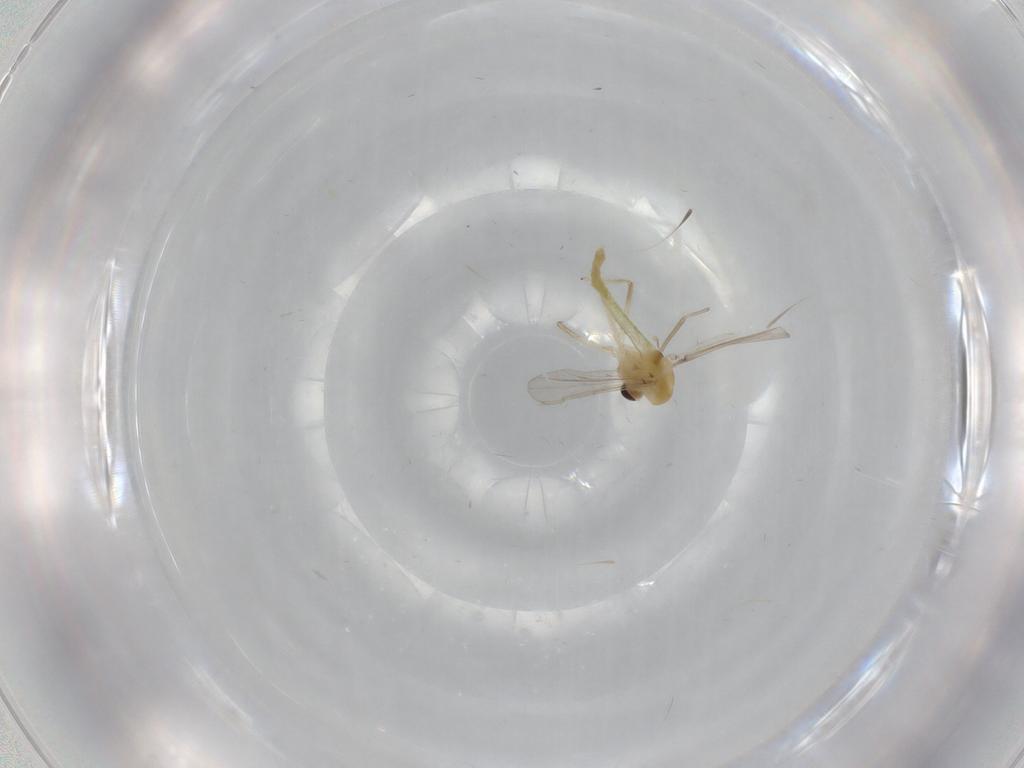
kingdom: Animalia
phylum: Arthropoda
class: Insecta
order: Diptera
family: Chironomidae
